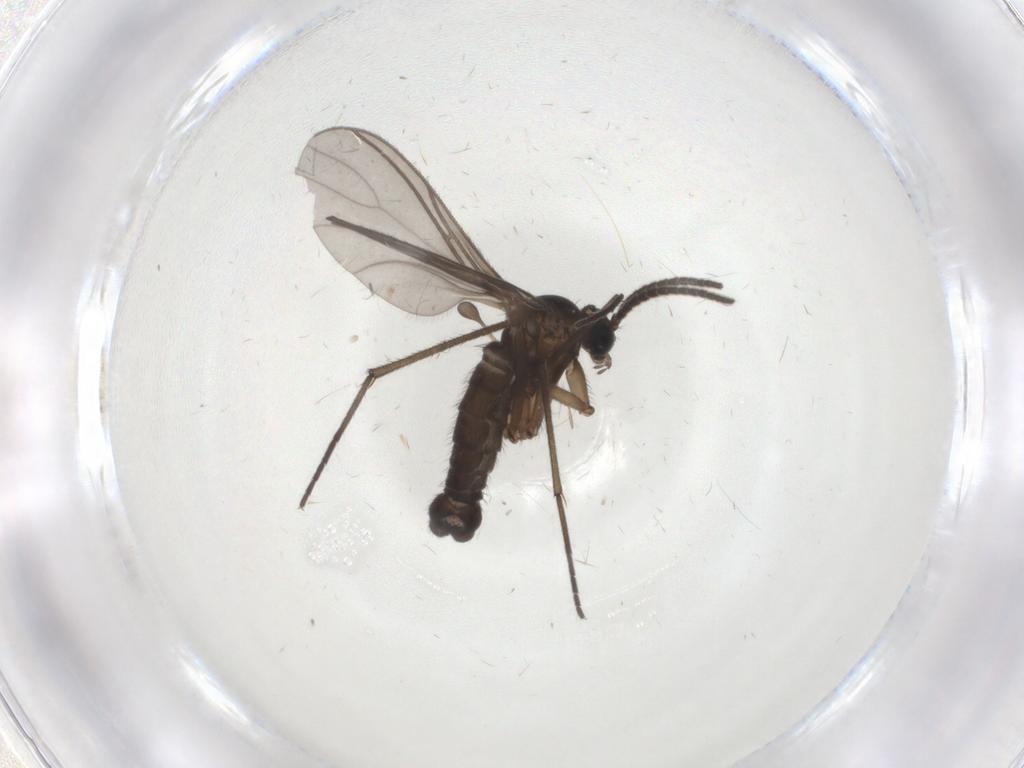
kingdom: Animalia
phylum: Arthropoda
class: Insecta
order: Diptera
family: Sciaridae
